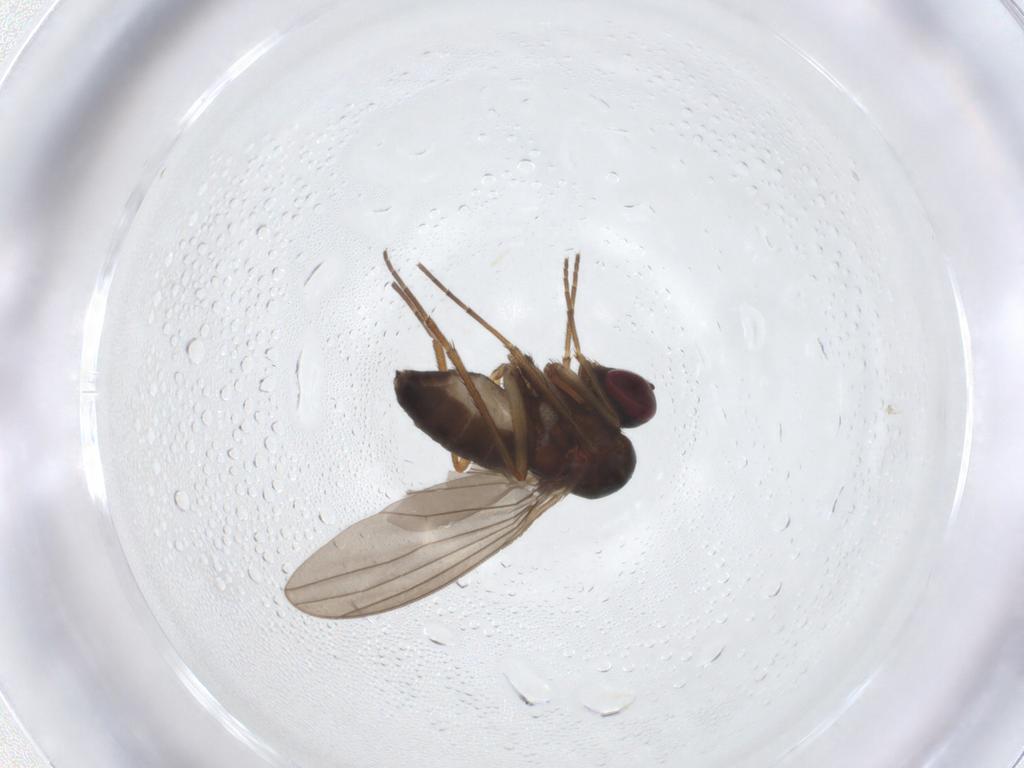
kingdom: Animalia
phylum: Arthropoda
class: Insecta
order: Diptera
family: Dolichopodidae
